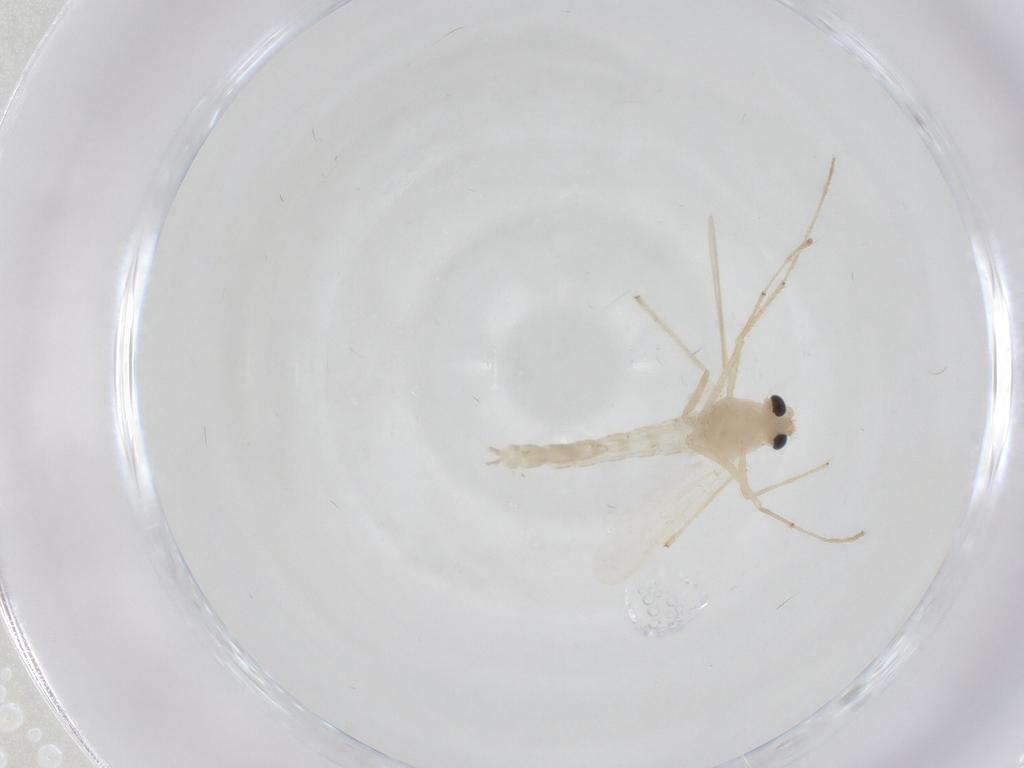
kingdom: Animalia
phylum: Arthropoda
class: Insecta
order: Diptera
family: Chironomidae
